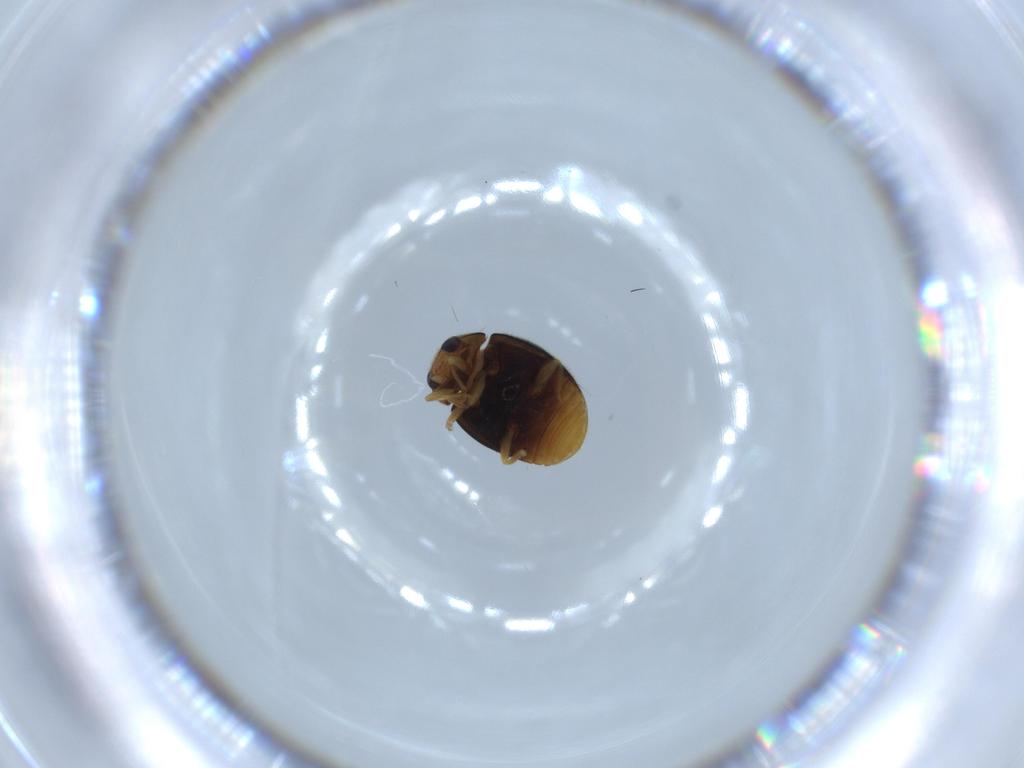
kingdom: Animalia
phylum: Arthropoda
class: Insecta
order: Coleoptera
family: Coccinellidae
